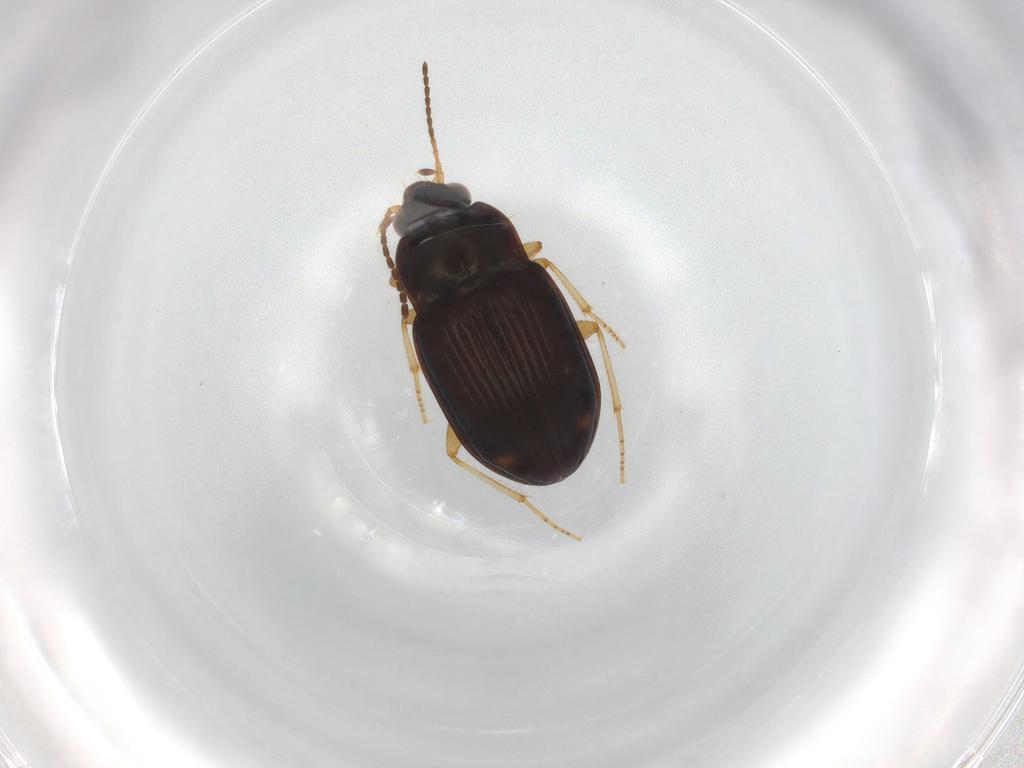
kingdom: Animalia
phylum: Arthropoda
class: Insecta
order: Coleoptera
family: Carabidae
